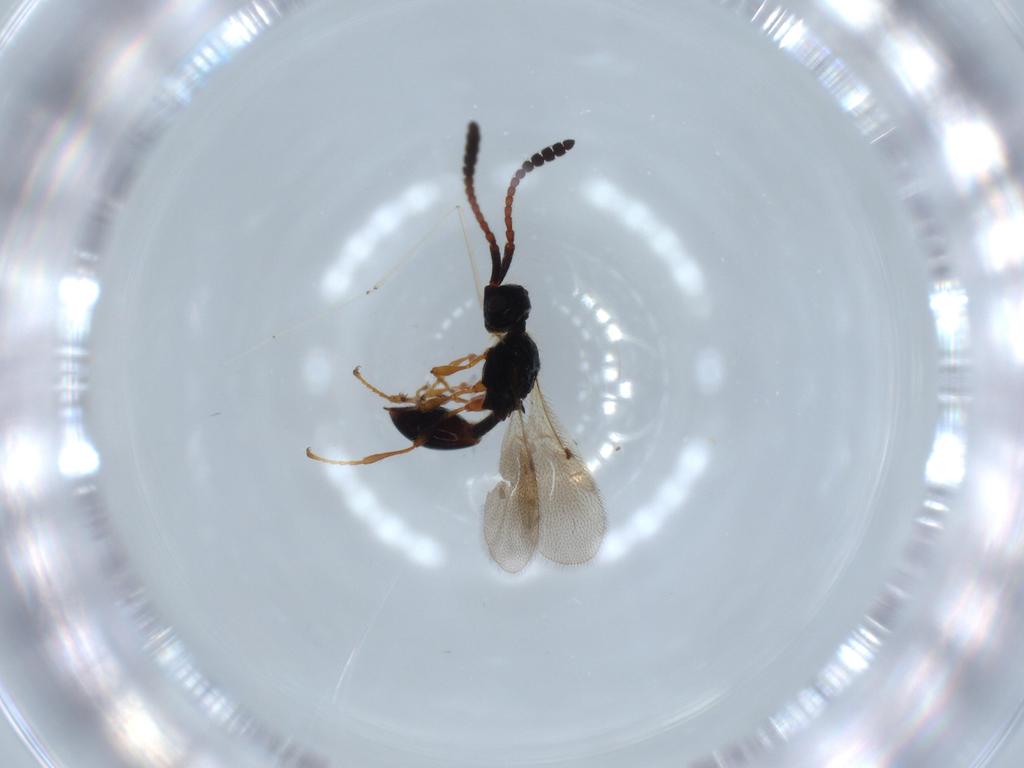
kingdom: Animalia
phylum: Arthropoda
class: Insecta
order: Hymenoptera
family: Diapriidae
